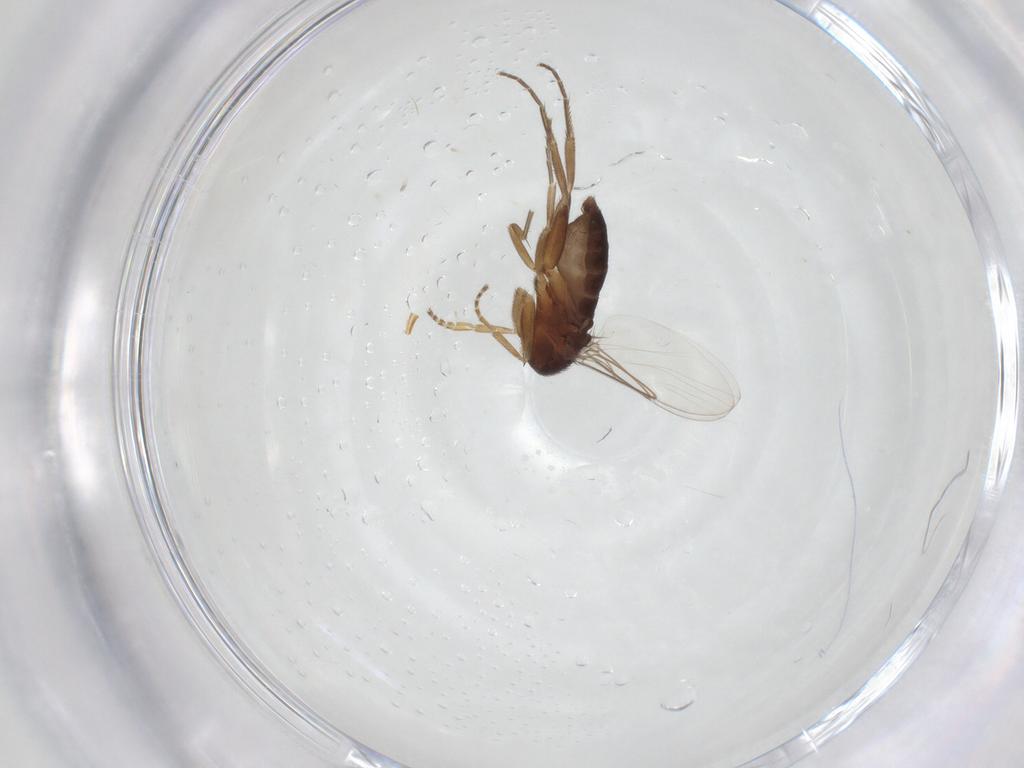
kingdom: Animalia
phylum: Arthropoda
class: Insecta
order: Diptera
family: Phoridae
